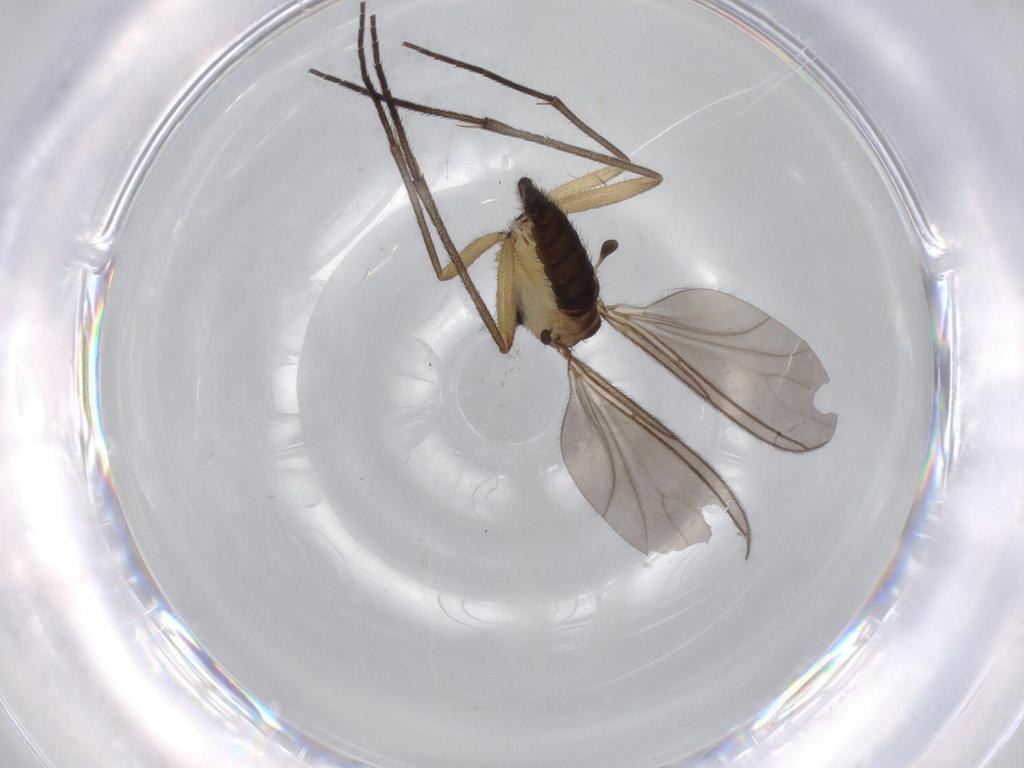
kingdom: Animalia
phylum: Arthropoda
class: Insecta
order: Diptera
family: Sciaridae
